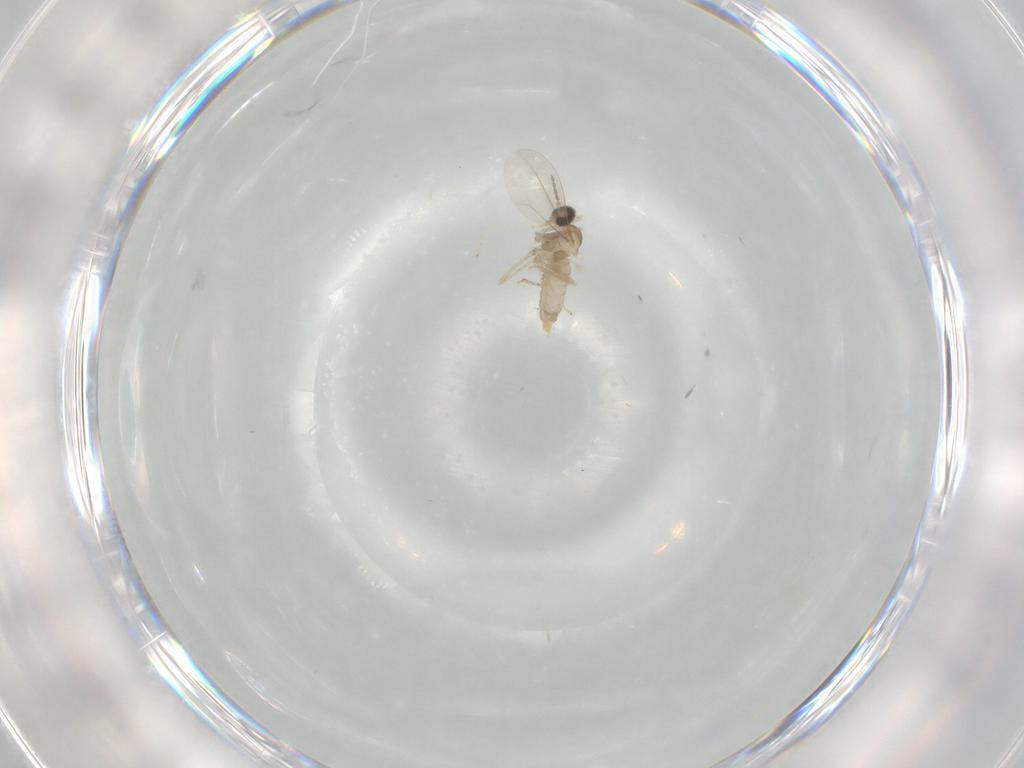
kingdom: Animalia
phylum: Arthropoda
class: Insecta
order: Diptera
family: Cecidomyiidae
